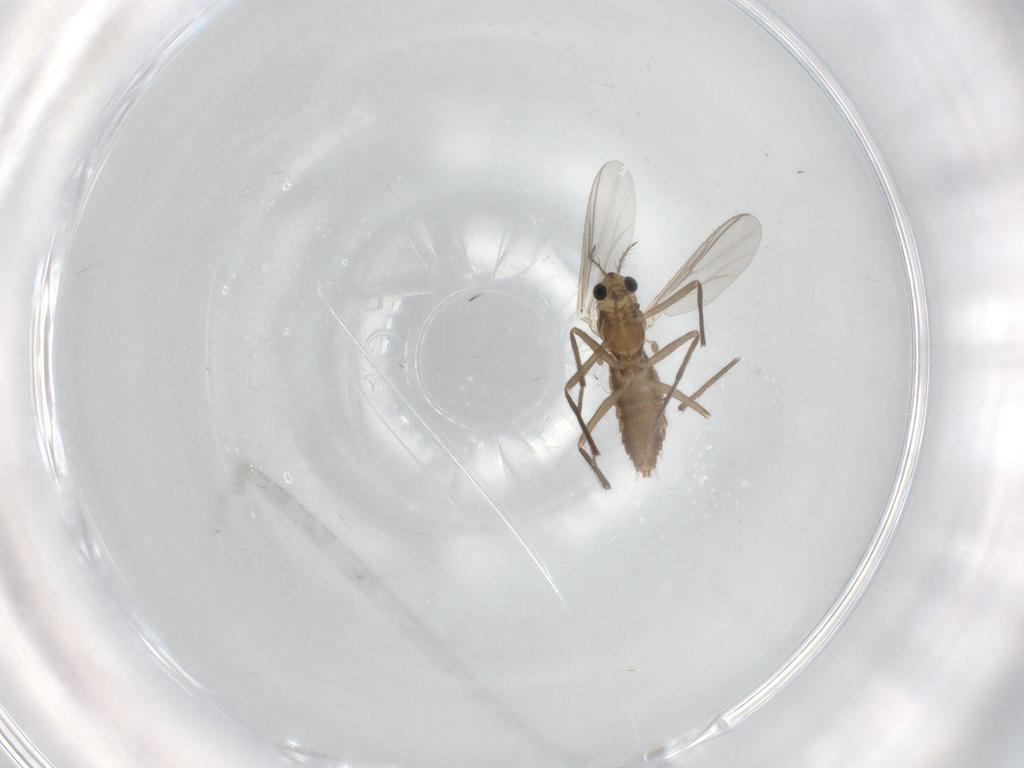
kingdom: Animalia
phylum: Arthropoda
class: Insecta
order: Diptera
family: Chironomidae
